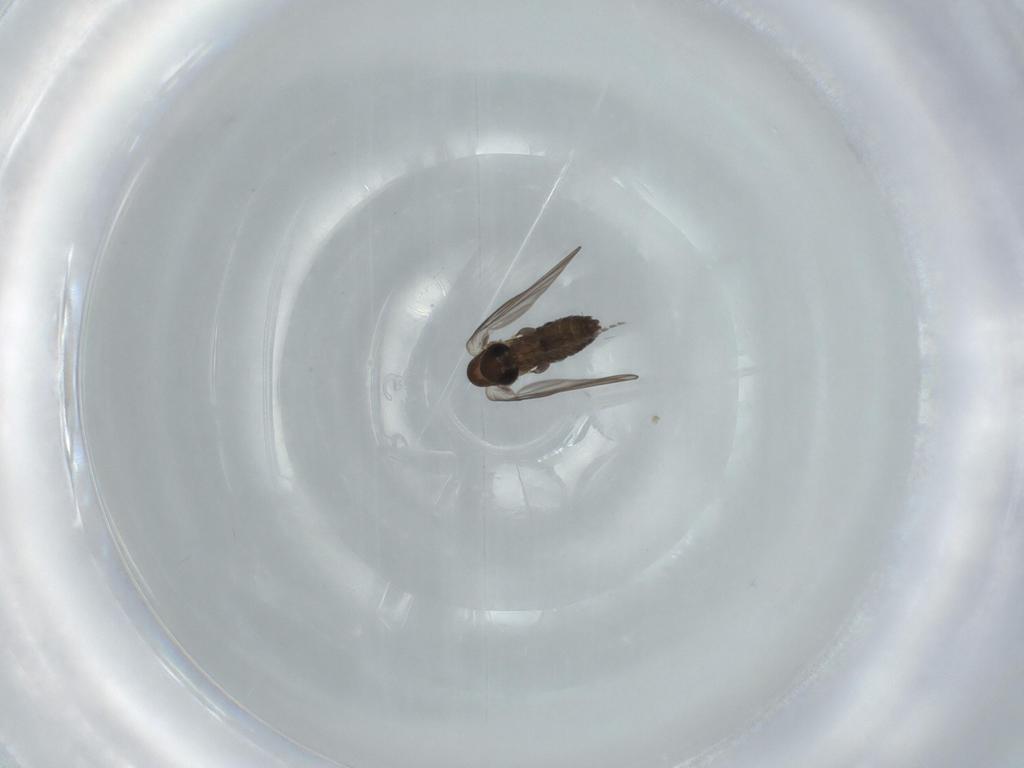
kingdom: Animalia
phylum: Arthropoda
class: Insecta
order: Diptera
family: Psychodidae
